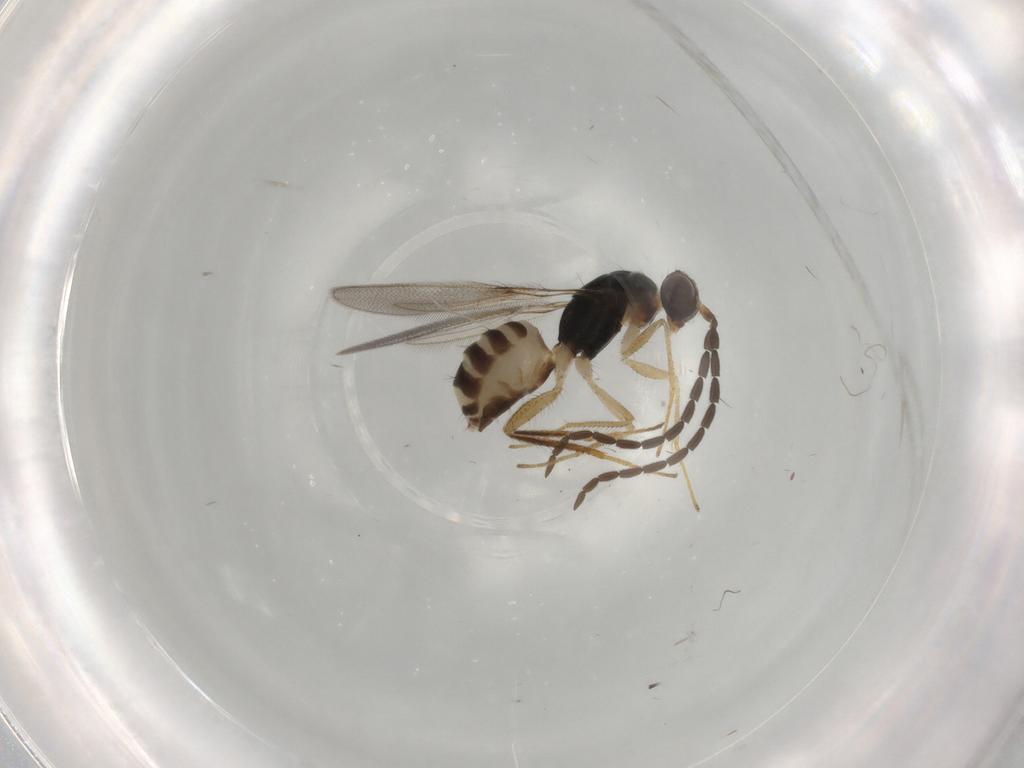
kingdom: Animalia
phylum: Arthropoda
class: Insecta
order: Hymenoptera
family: Mymaridae
